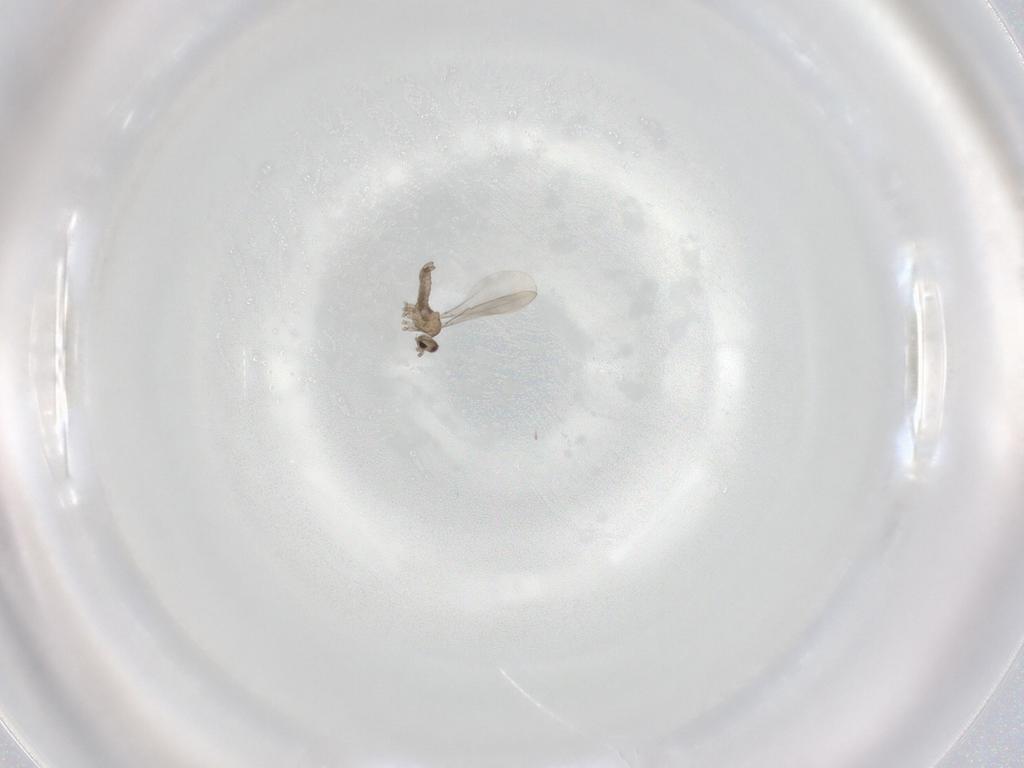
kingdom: Animalia
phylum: Arthropoda
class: Insecta
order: Diptera
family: Cecidomyiidae
